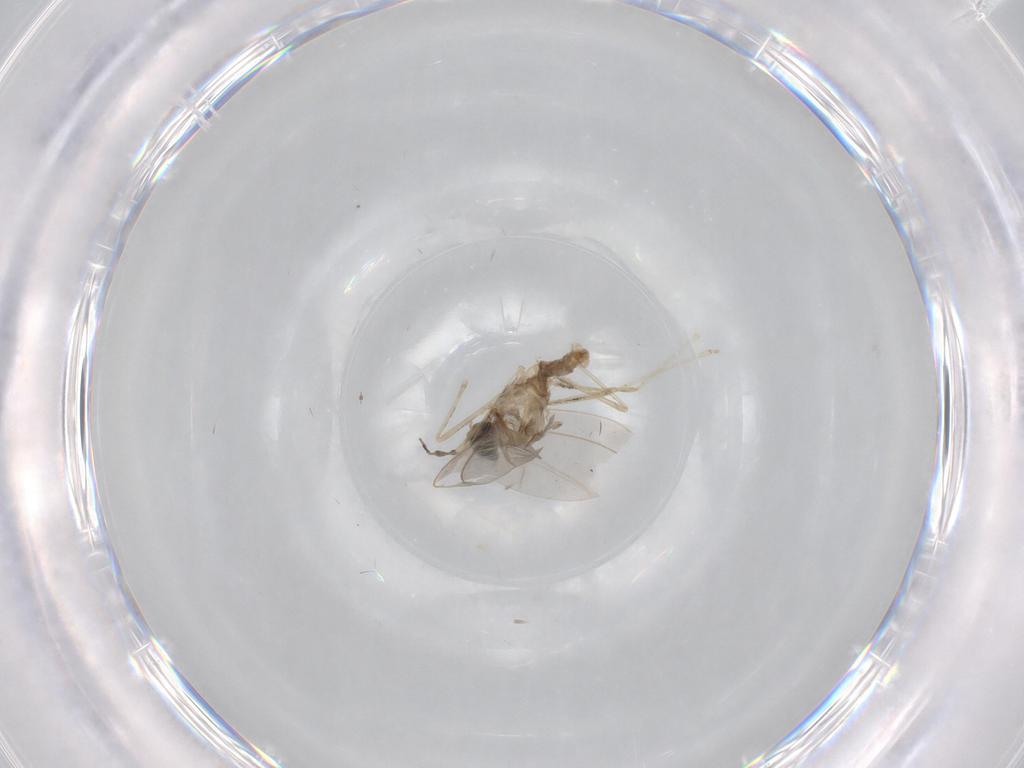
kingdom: Animalia
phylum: Arthropoda
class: Insecta
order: Diptera
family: Cecidomyiidae
